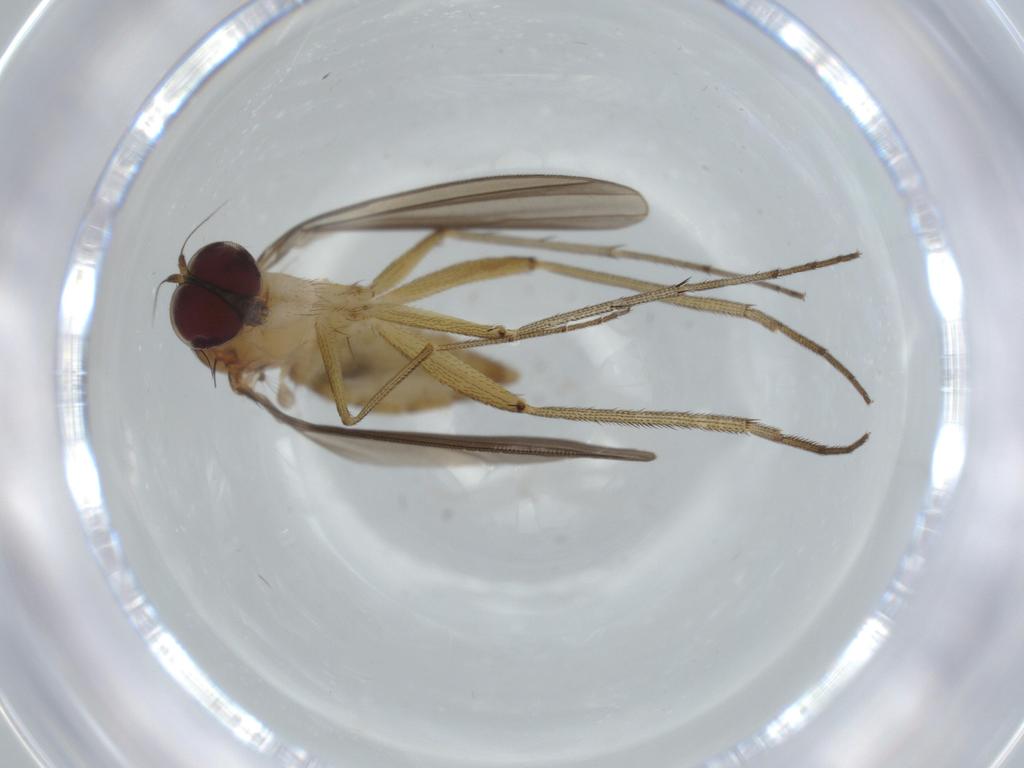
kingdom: Animalia
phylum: Arthropoda
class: Insecta
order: Diptera
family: Dolichopodidae
